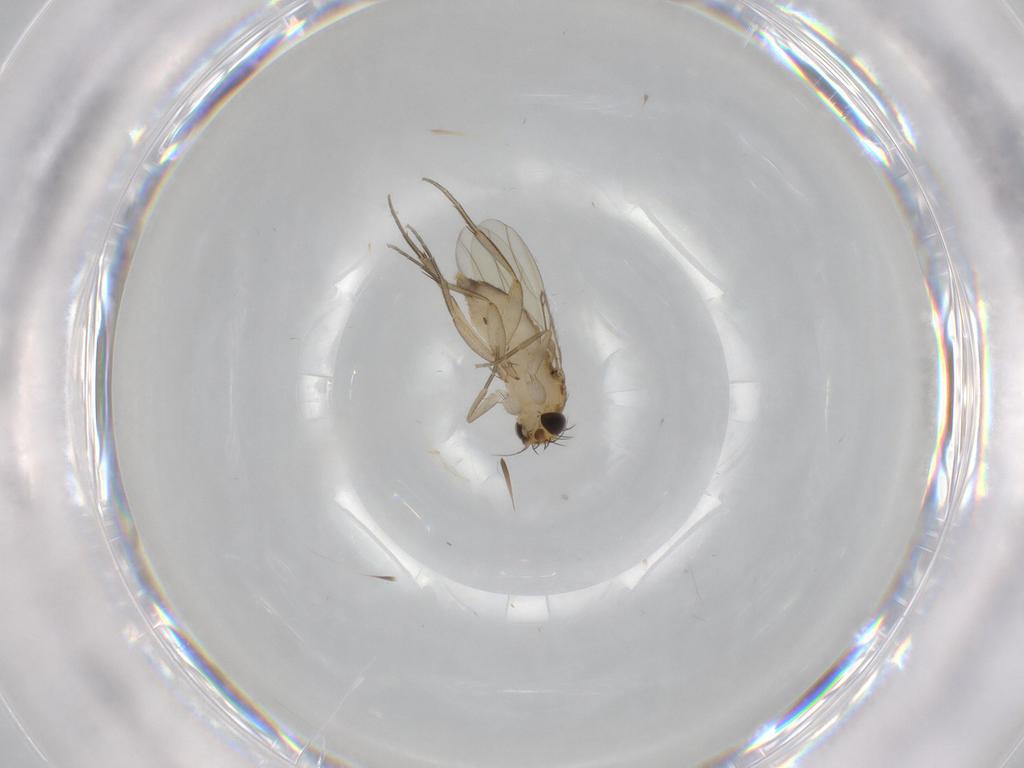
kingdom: Animalia
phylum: Arthropoda
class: Insecta
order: Diptera
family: Phoridae
